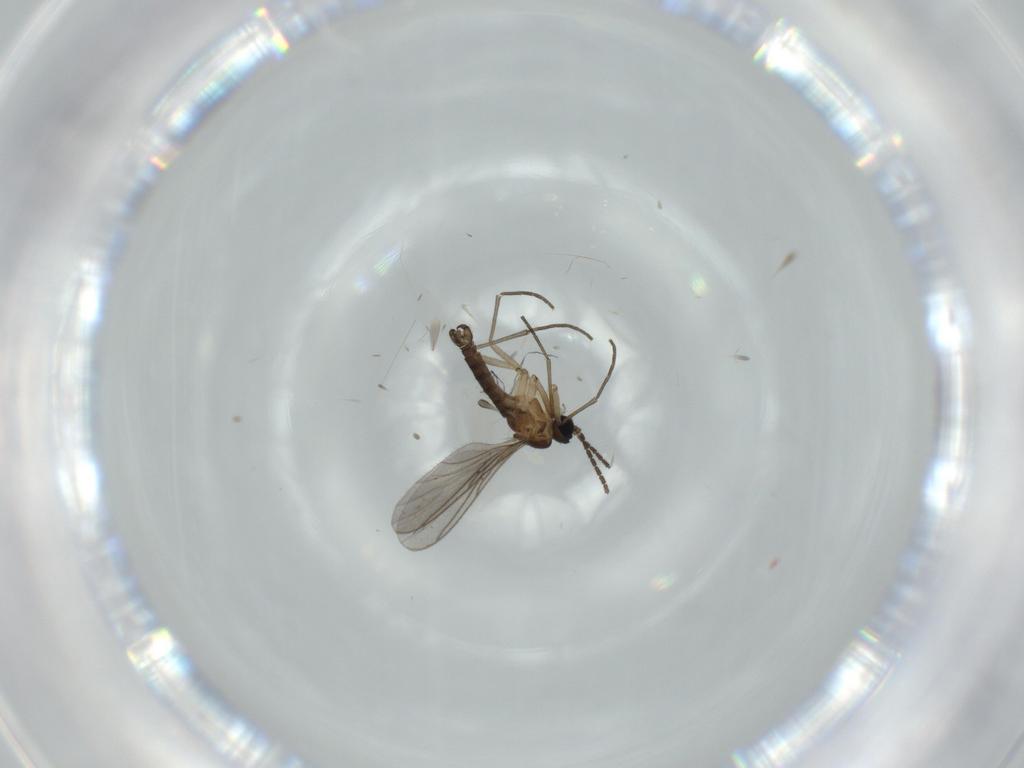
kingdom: Animalia
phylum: Arthropoda
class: Insecta
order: Diptera
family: Sciaridae
